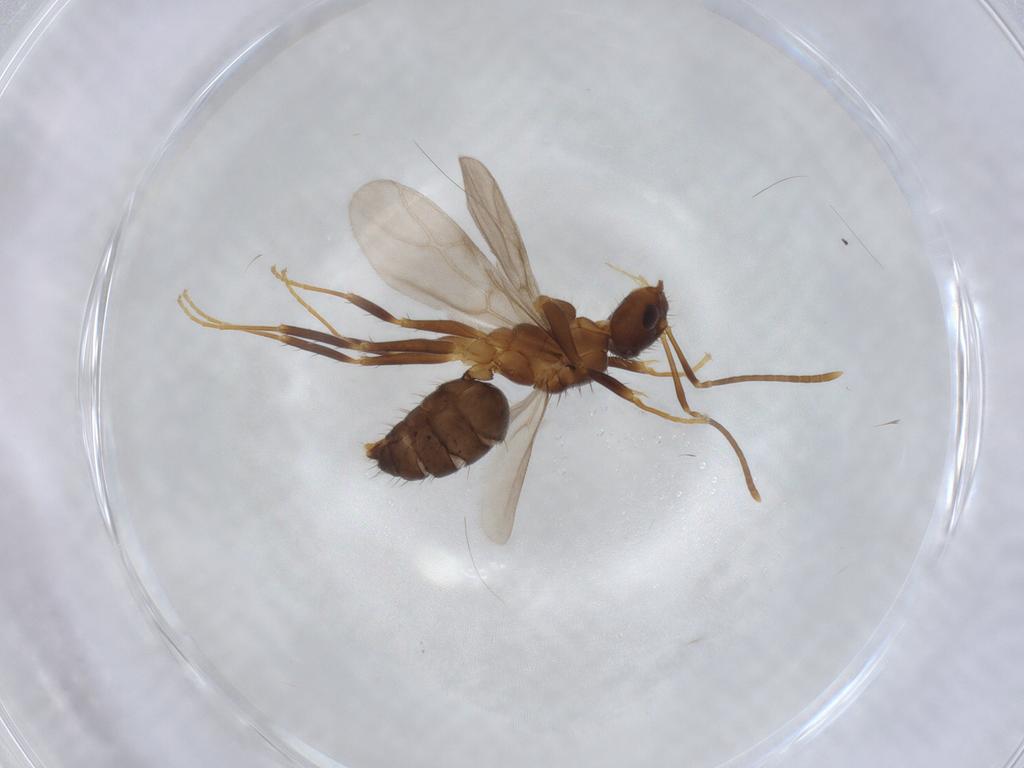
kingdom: Animalia
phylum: Arthropoda
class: Insecta
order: Hymenoptera
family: Formicidae
